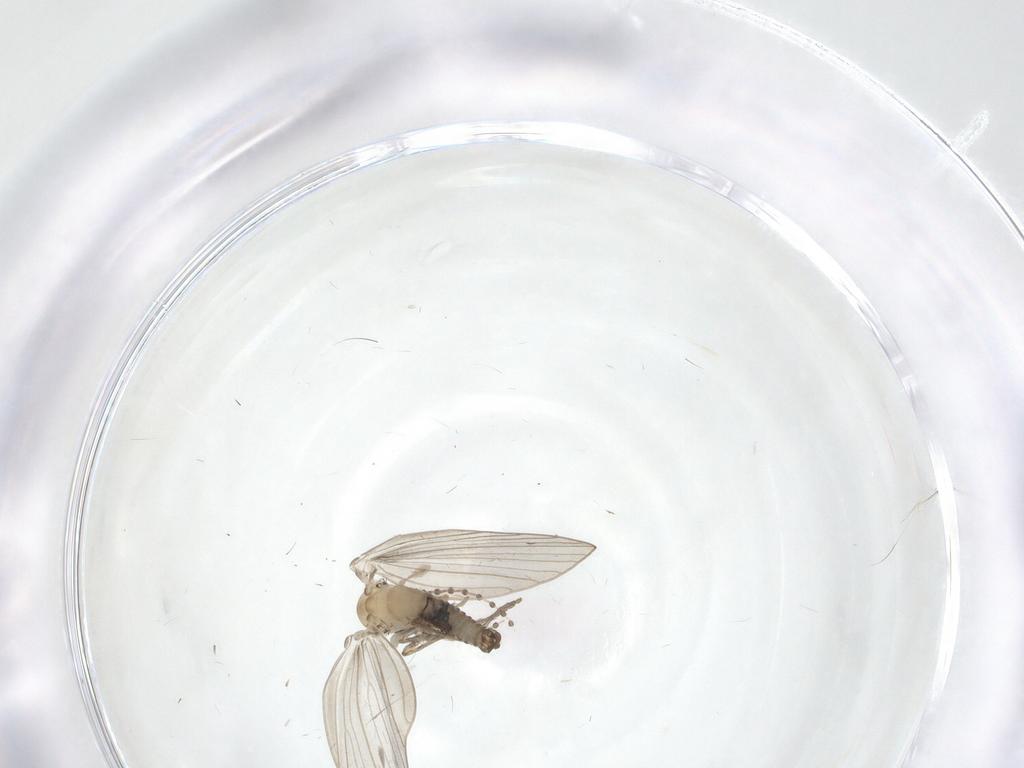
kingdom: Animalia
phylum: Arthropoda
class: Insecta
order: Diptera
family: Psychodidae
